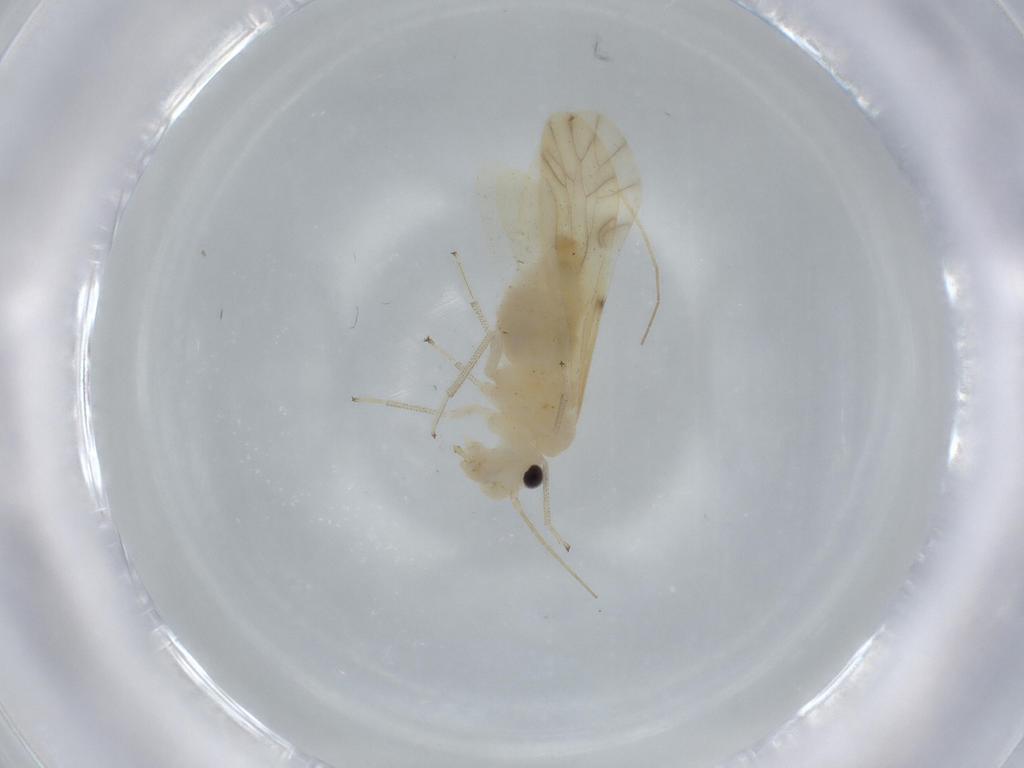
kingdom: Animalia
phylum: Arthropoda
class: Insecta
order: Psocodea
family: Caeciliusidae
